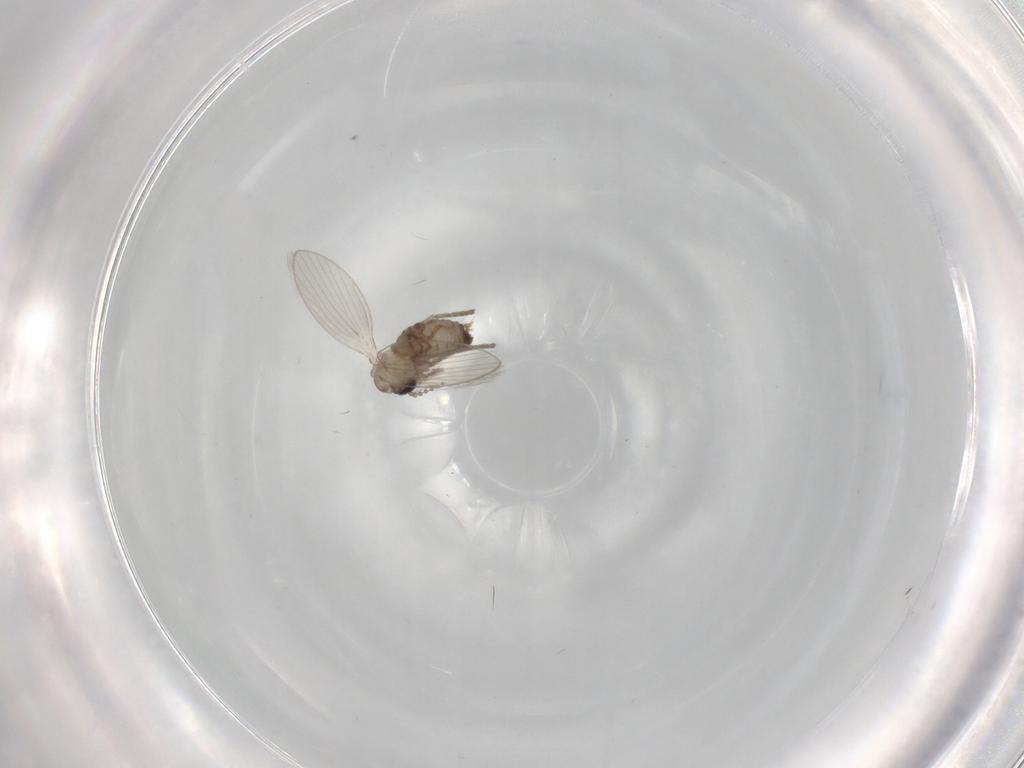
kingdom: Animalia
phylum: Arthropoda
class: Insecta
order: Diptera
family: Psychodidae
